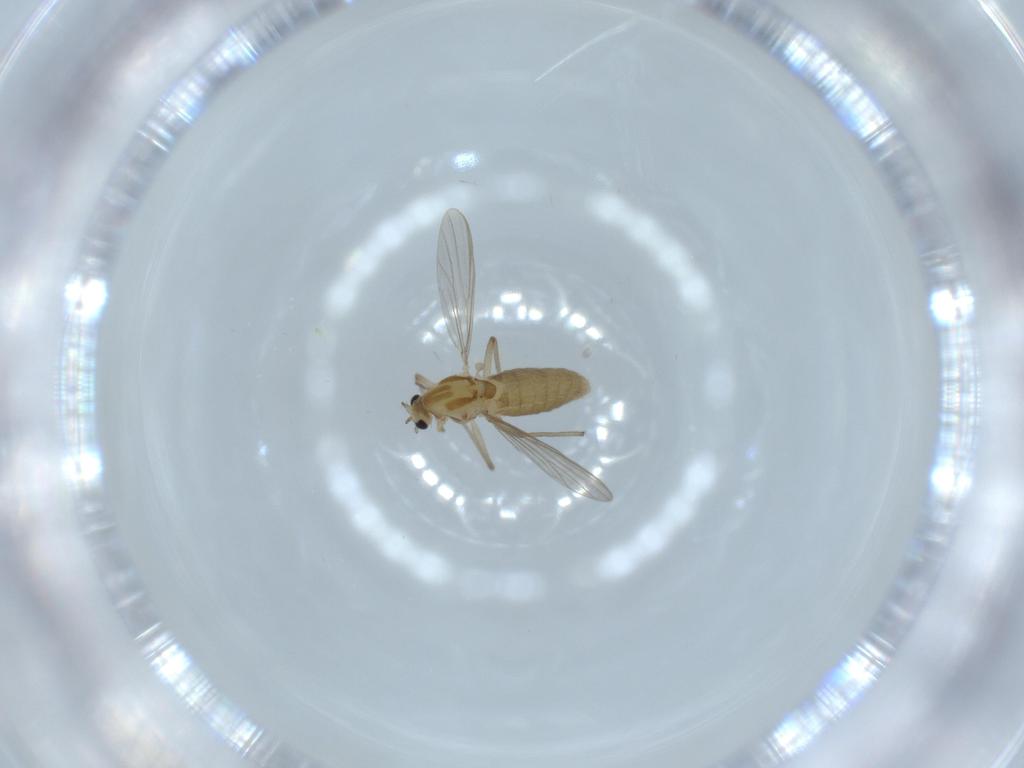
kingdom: Animalia
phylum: Arthropoda
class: Insecta
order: Diptera
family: Chironomidae
